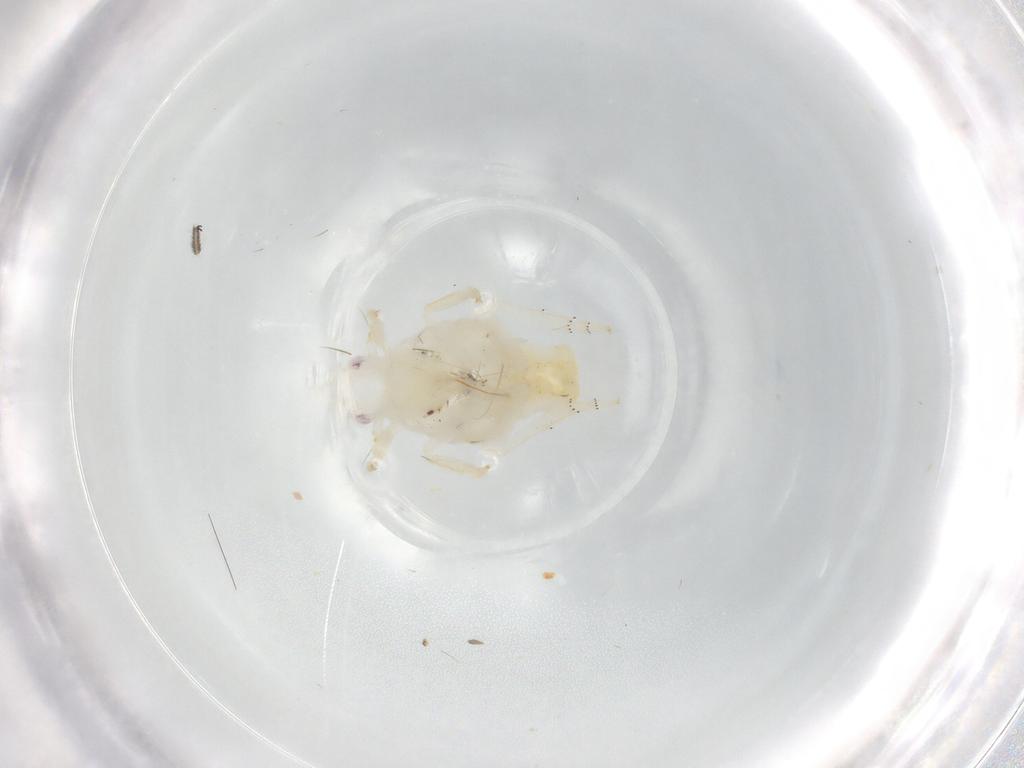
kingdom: Animalia
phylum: Arthropoda
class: Insecta
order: Hemiptera
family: Fulgoroidea_incertae_sedis
